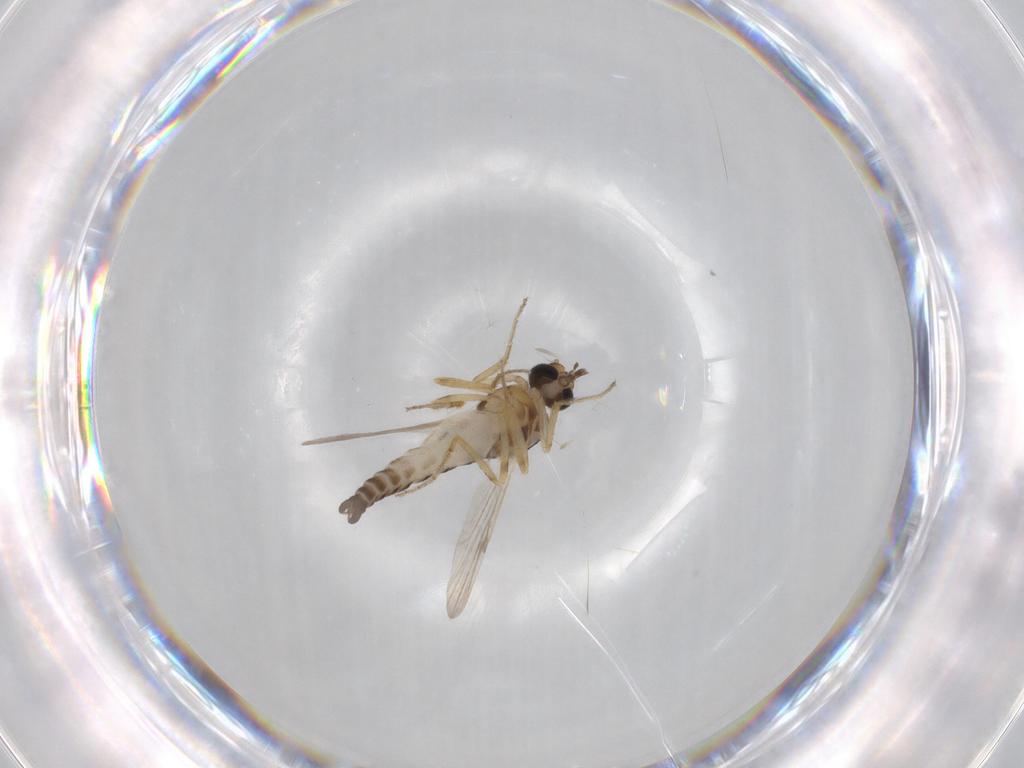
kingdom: Animalia
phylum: Arthropoda
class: Insecta
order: Diptera
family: Ceratopogonidae
